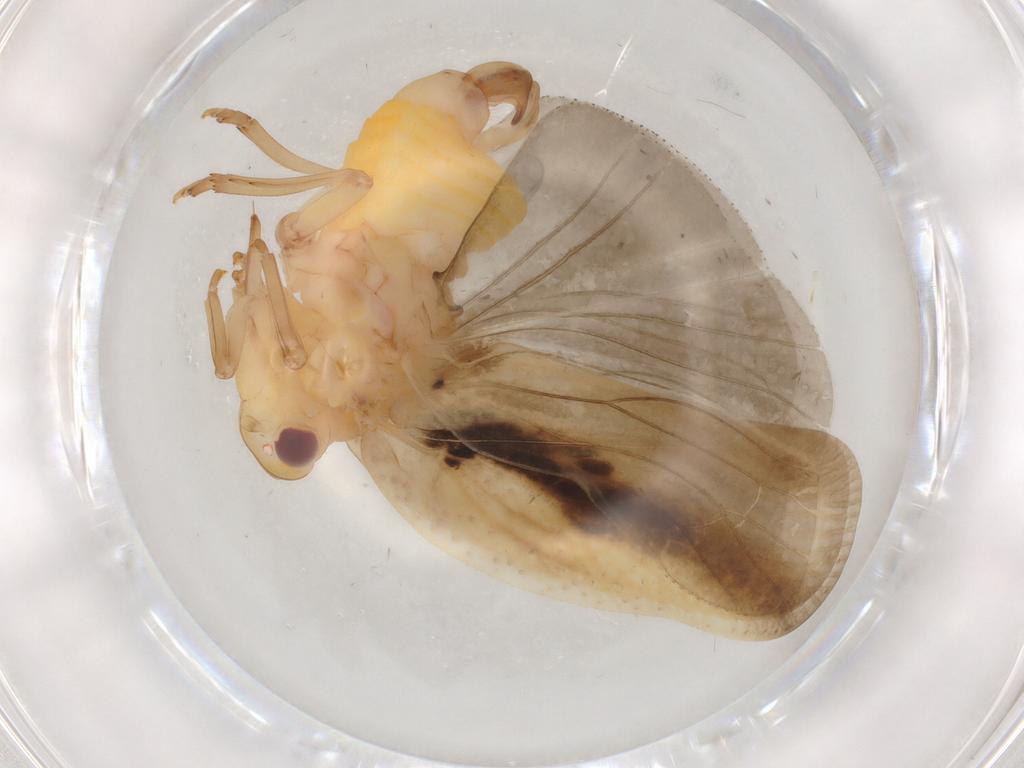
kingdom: Animalia
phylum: Arthropoda
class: Insecta
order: Hemiptera
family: Flatidae
